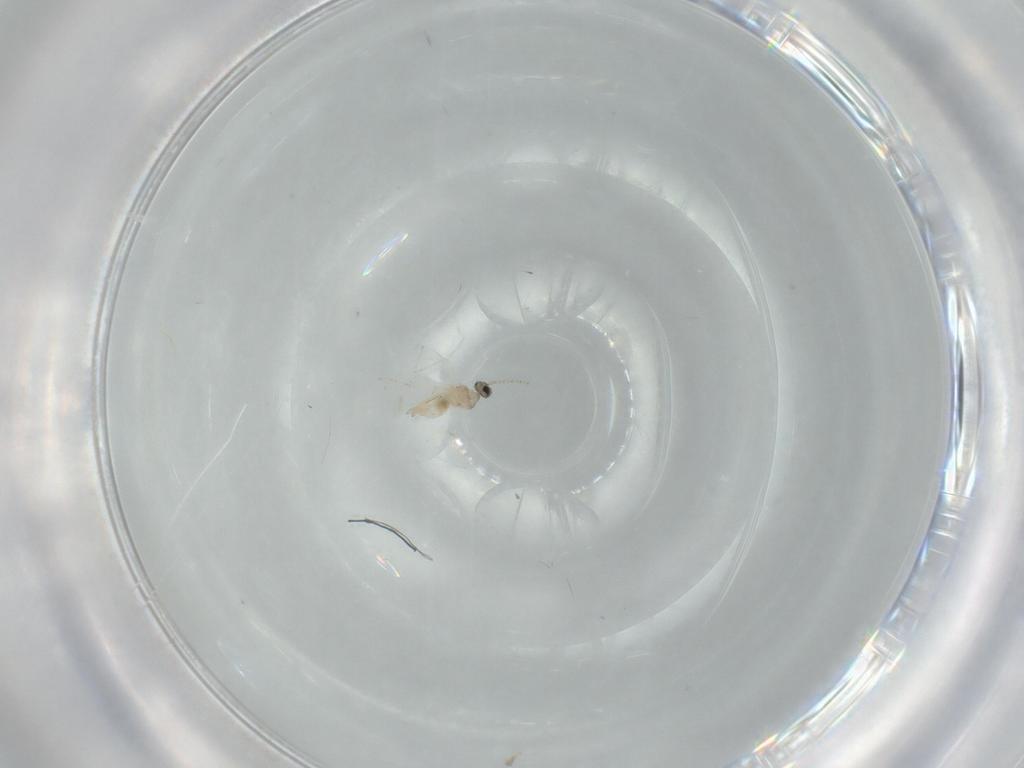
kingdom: Animalia
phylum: Arthropoda
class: Insecta
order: Diptera
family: Cecidomyiidae
